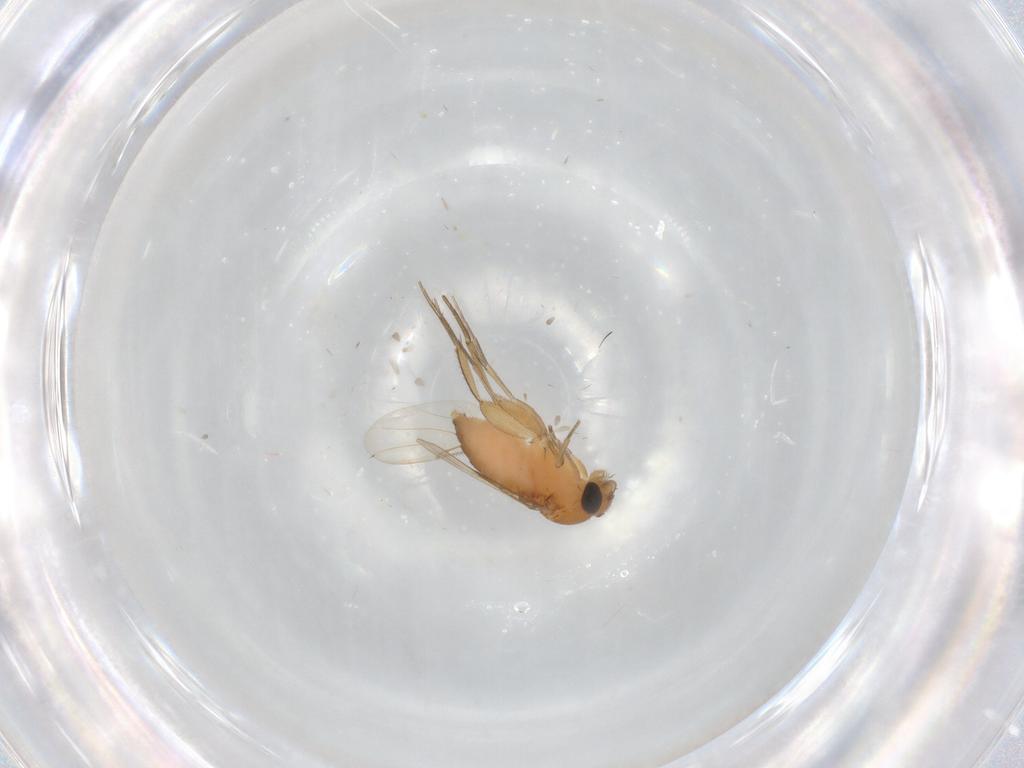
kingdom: Animalia
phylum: Arthropoda
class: Insecta
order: Diptera
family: Phoridae
